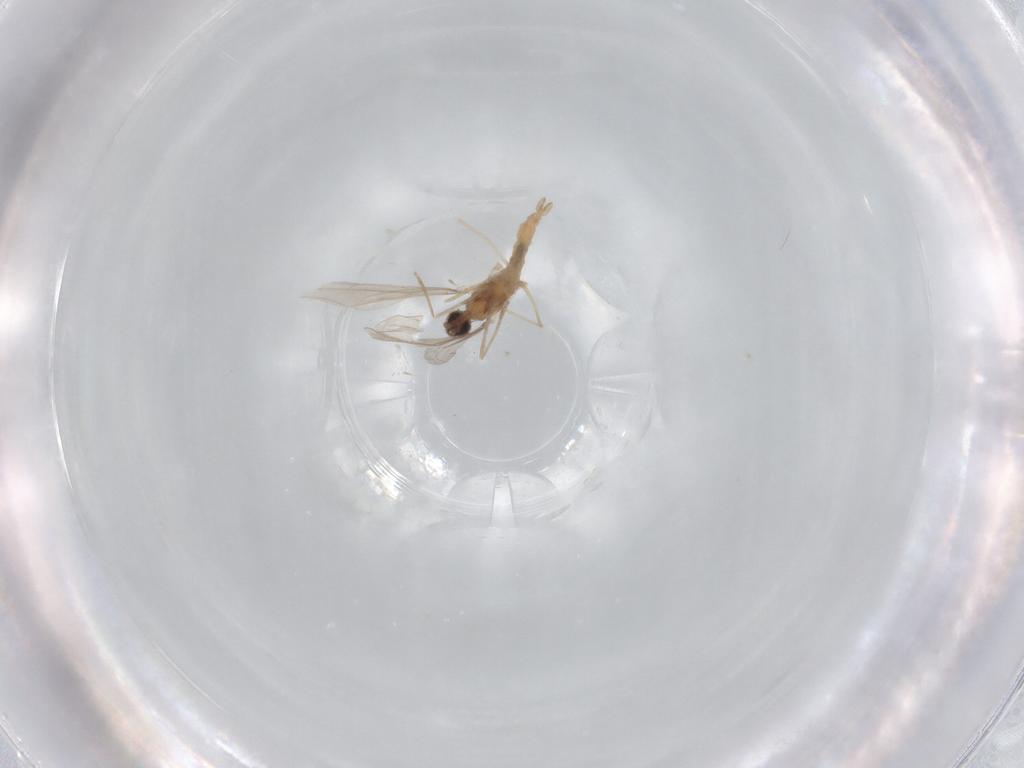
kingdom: Animalia
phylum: Arthropoda
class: Insecta
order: Diptera
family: Cecidomyiidae
